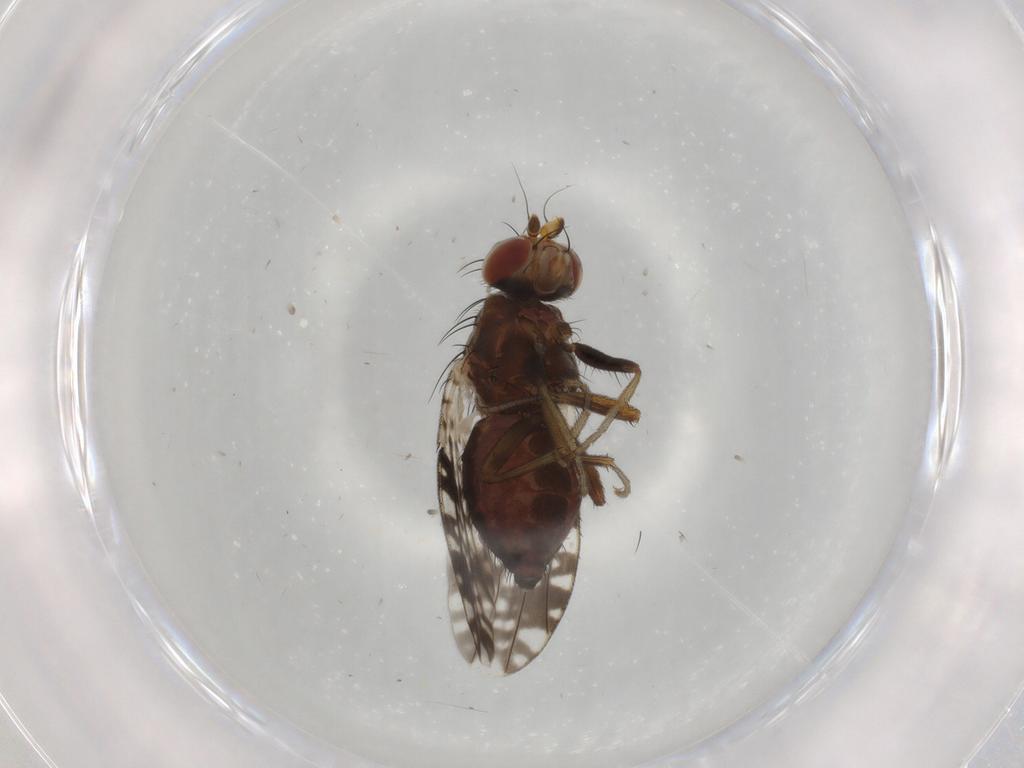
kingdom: Animalia
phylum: Arthropoda
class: Insecta
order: Diptera
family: Tephritidae
